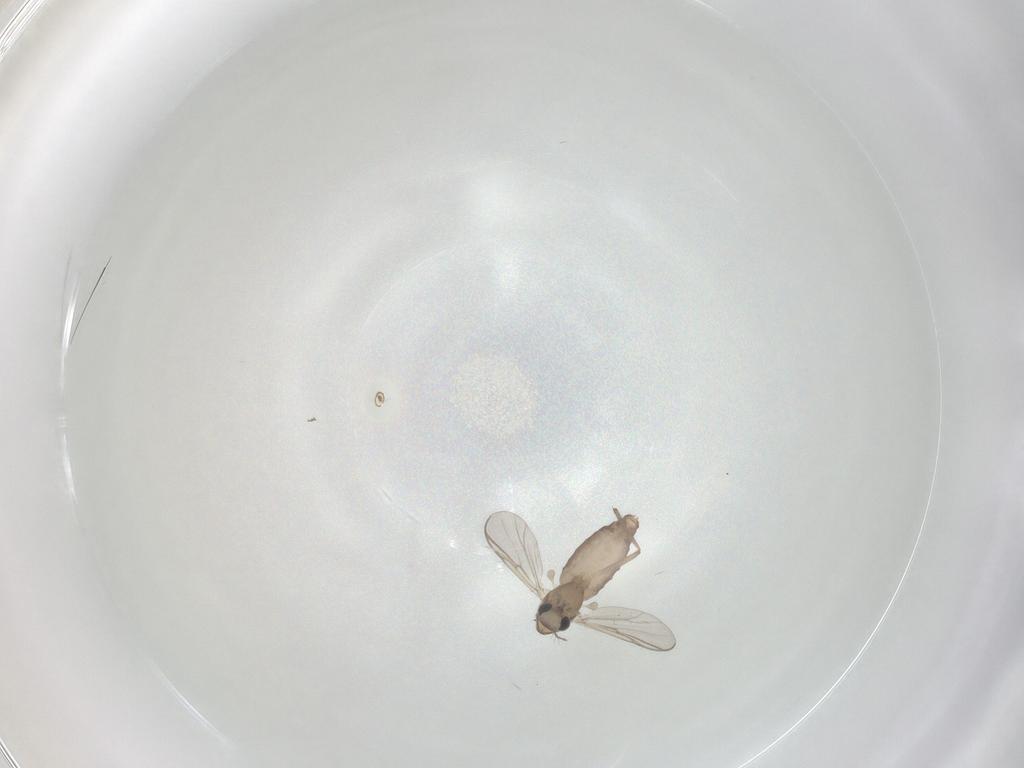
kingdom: Animalia
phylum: Arthropoda
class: Insecta
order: Diptera
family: Chironomidae
